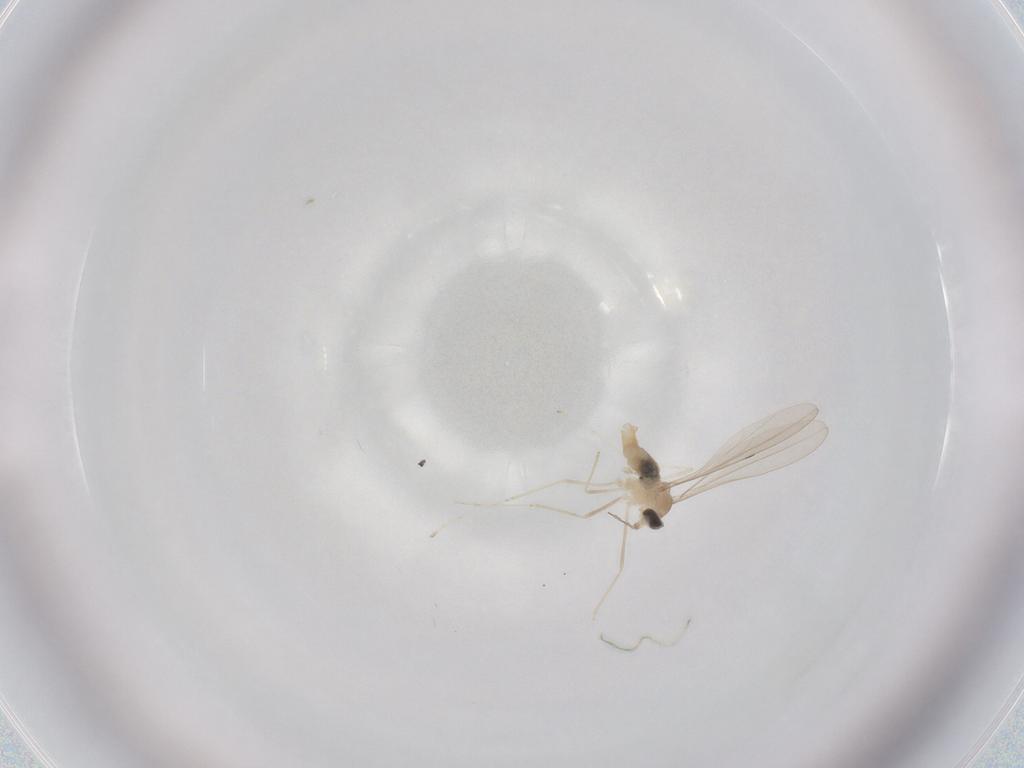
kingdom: Animalia
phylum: Arthropoda
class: Insecta
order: Diptera
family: Cecidomyiidae
